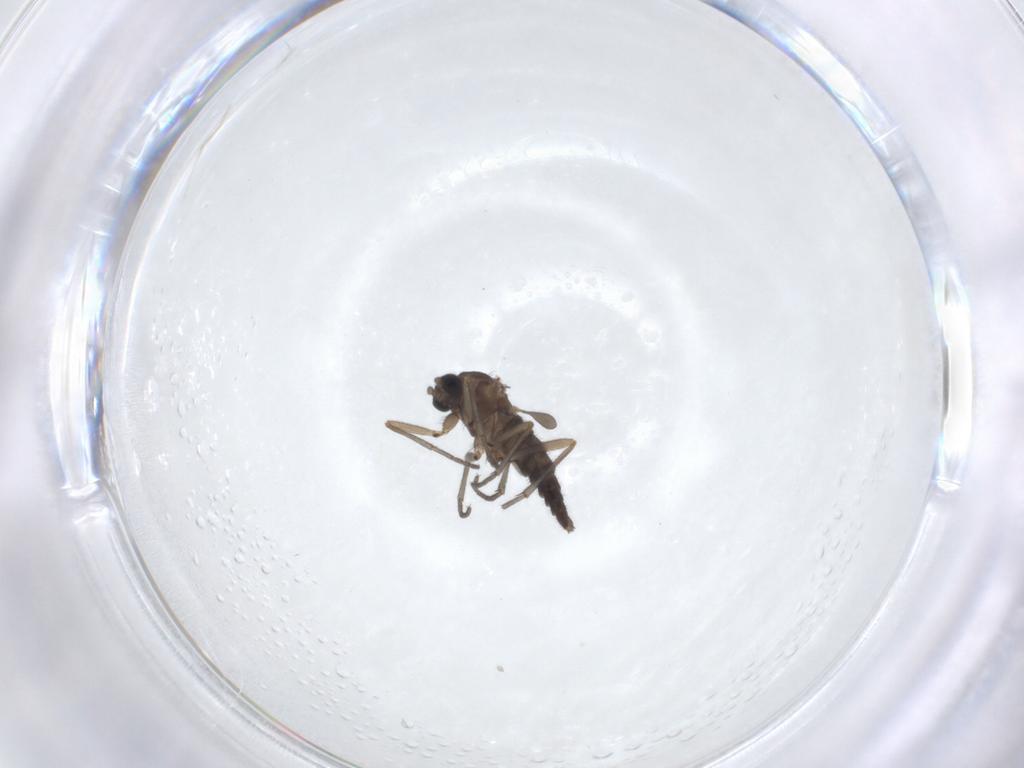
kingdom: Animalia
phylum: Arthropoda
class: Insecta
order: Diptera
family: Sciaridae
